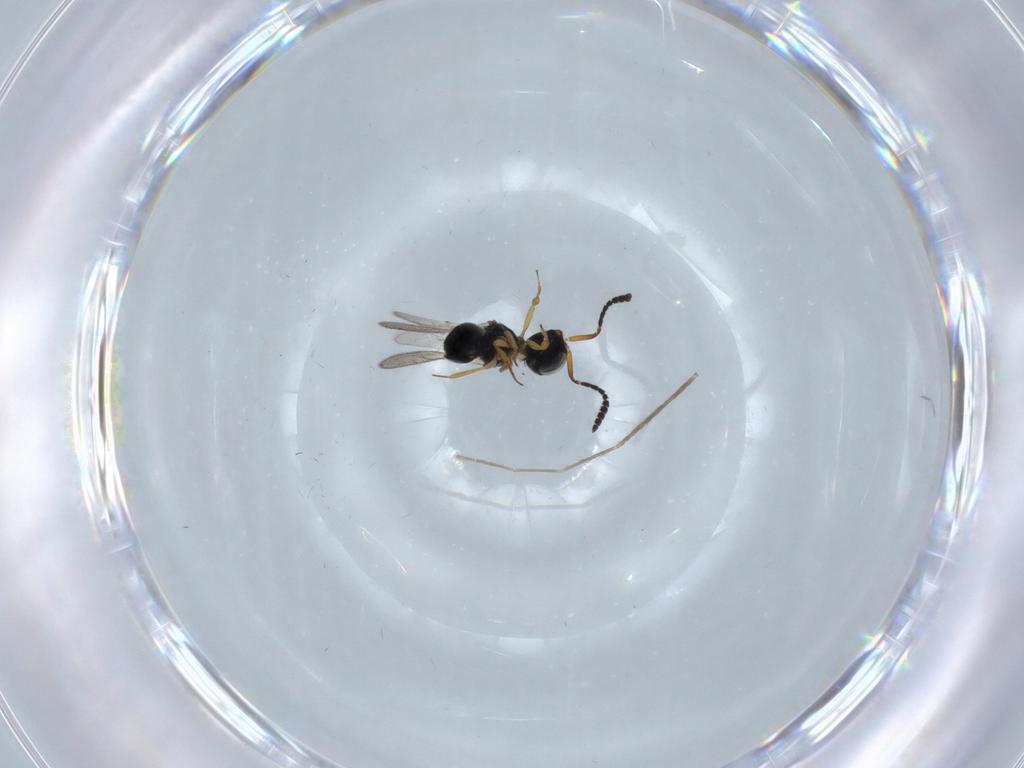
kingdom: Animalia
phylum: Arthropoda
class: Insecta
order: Hymenoptera
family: Scelionidae
